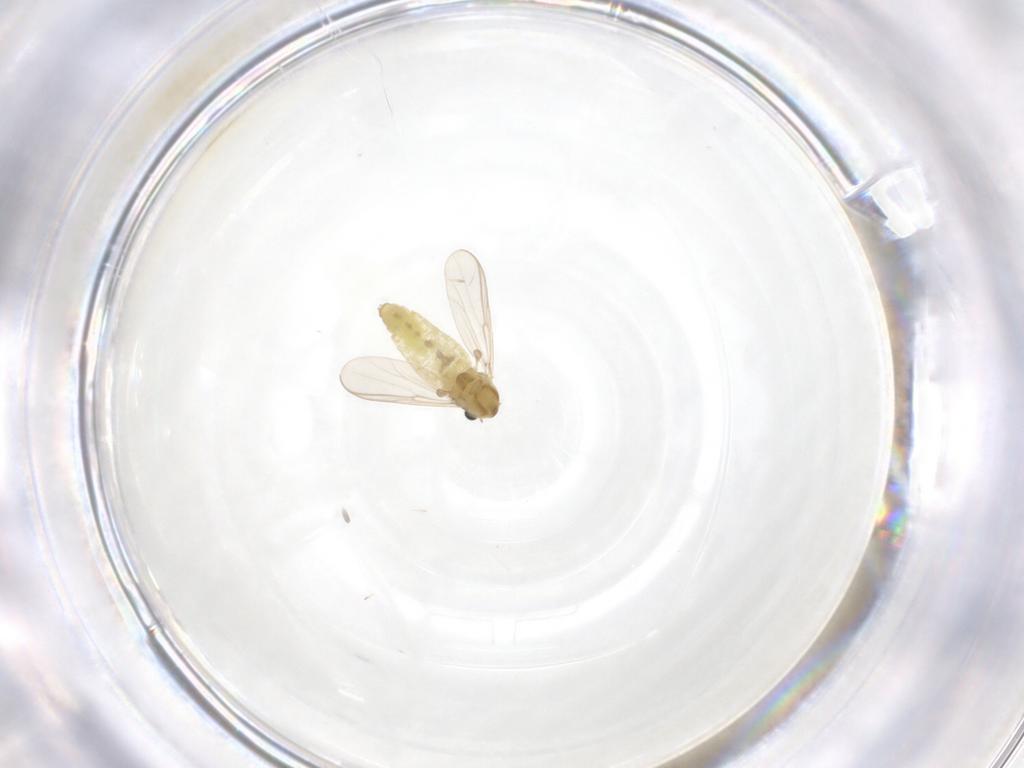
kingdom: Animalia
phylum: Arthropoda
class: Insecta
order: Diptera
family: Chironomidae
